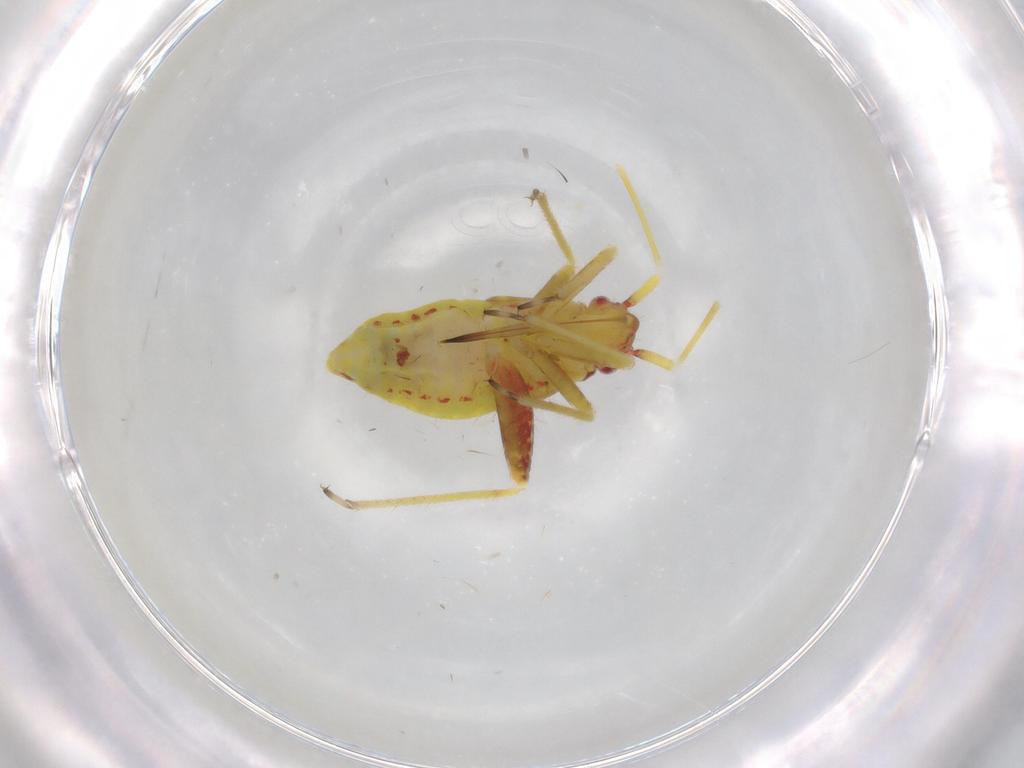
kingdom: Animalia
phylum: Arthropoda
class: Insecta
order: Hemiptera
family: Miridae
